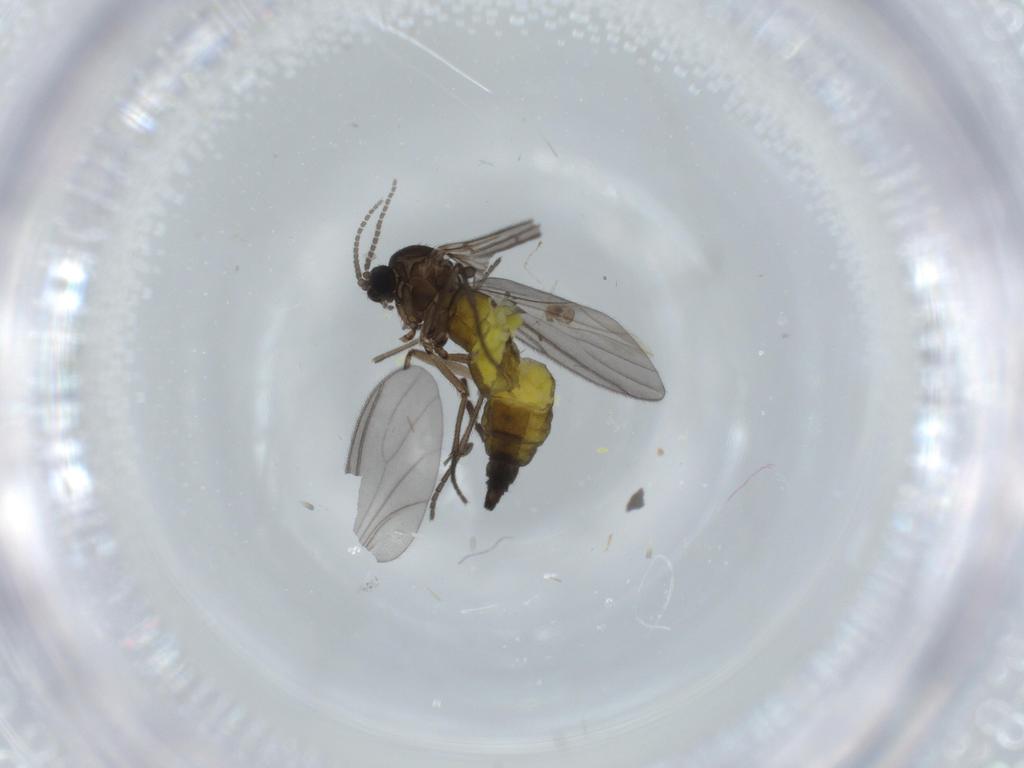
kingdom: Animalia
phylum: Arthropoda
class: Insecta
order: Diptera
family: Sciaridae
